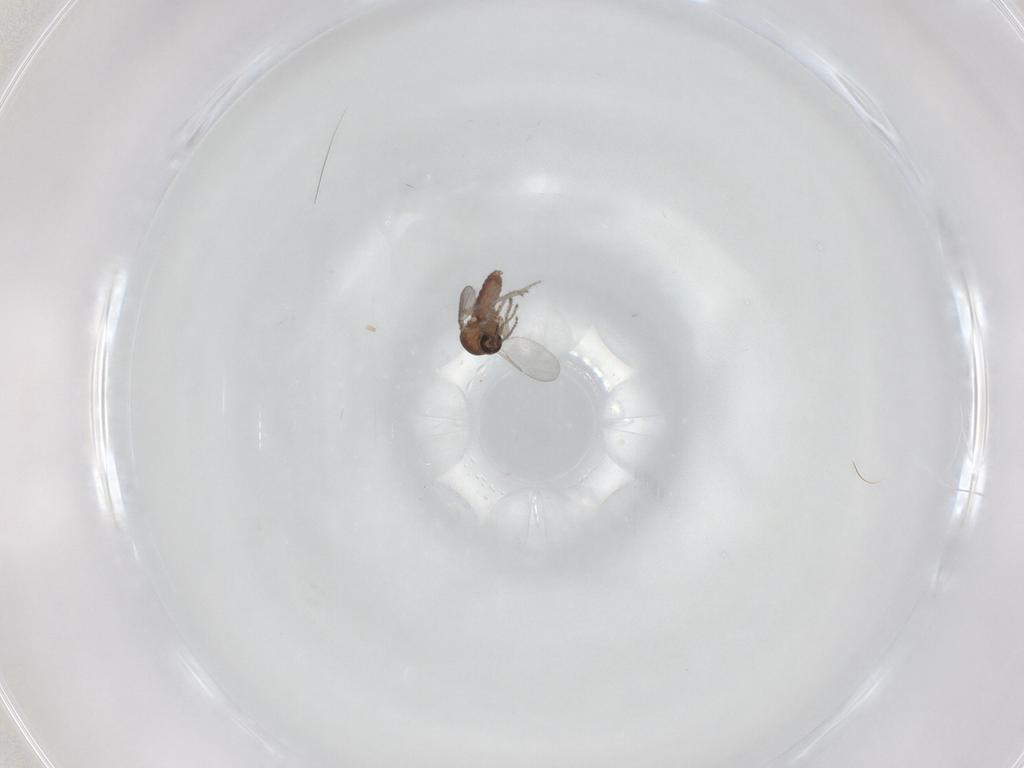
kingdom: Animalia
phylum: Arthropoda
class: Insecta
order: Diptera
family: Ceratopogonidae
